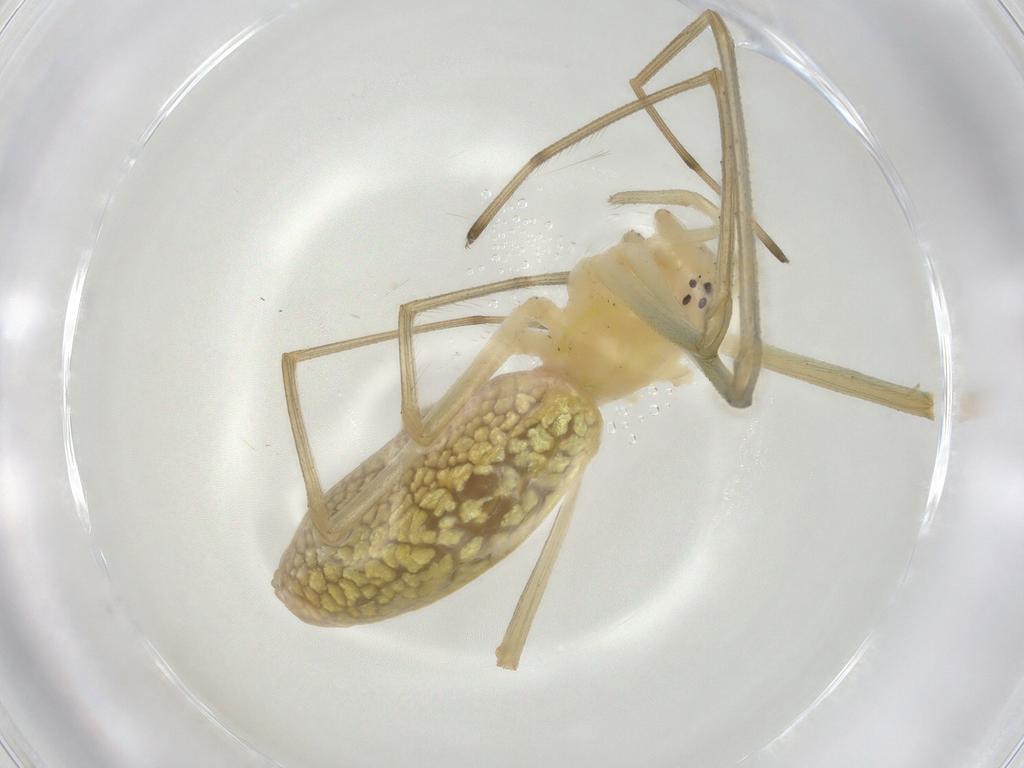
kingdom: Animalia
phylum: Arthropoda
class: Arachnida
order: Araneae
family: Tetragnathidae
